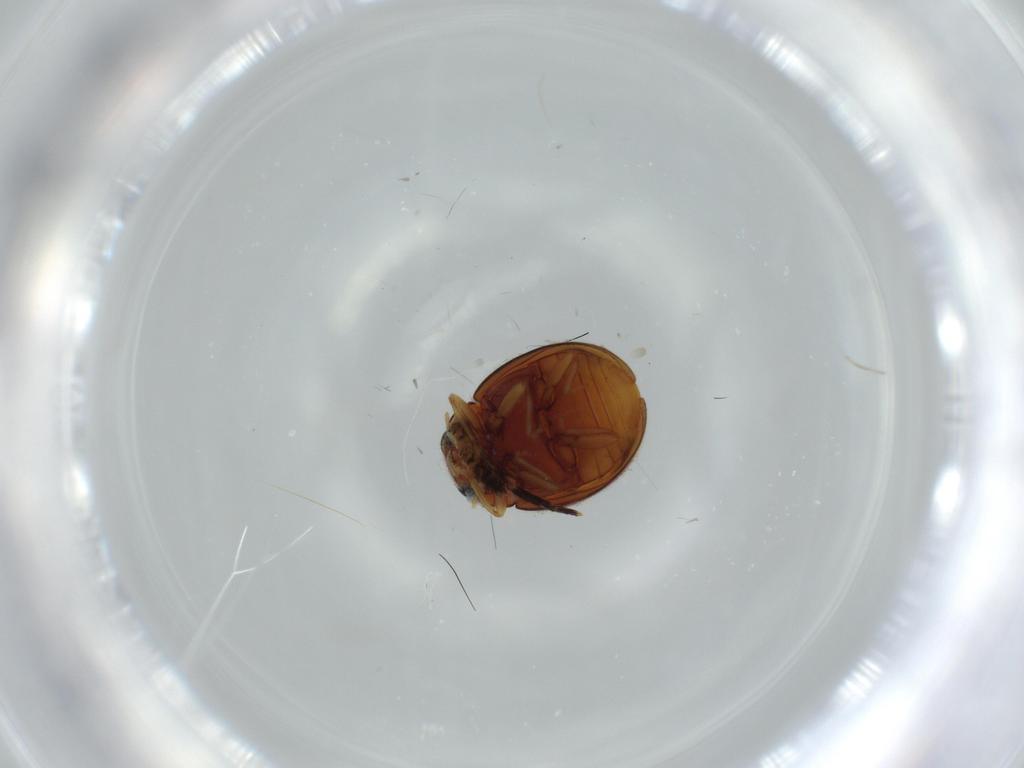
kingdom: Animalia
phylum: Arthropoda
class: Insecta
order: Coleoptera
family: Coccinellidae
